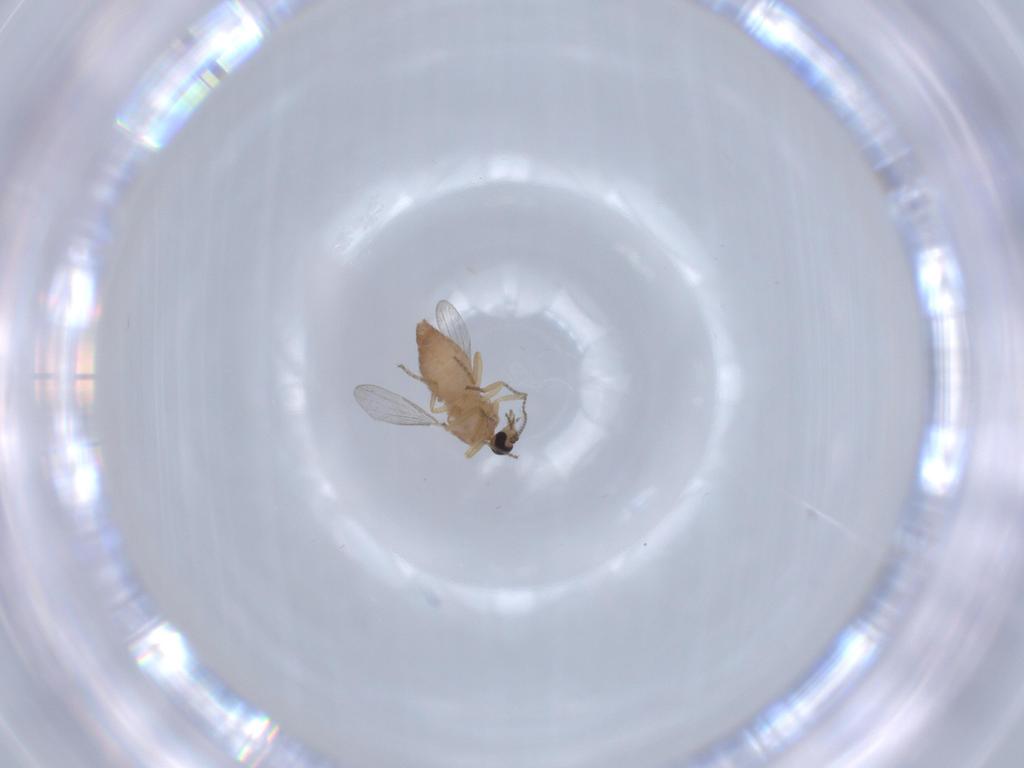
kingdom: Animalia
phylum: Arthropoda
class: Insecta
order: Diptera
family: Ceratopogonidae
